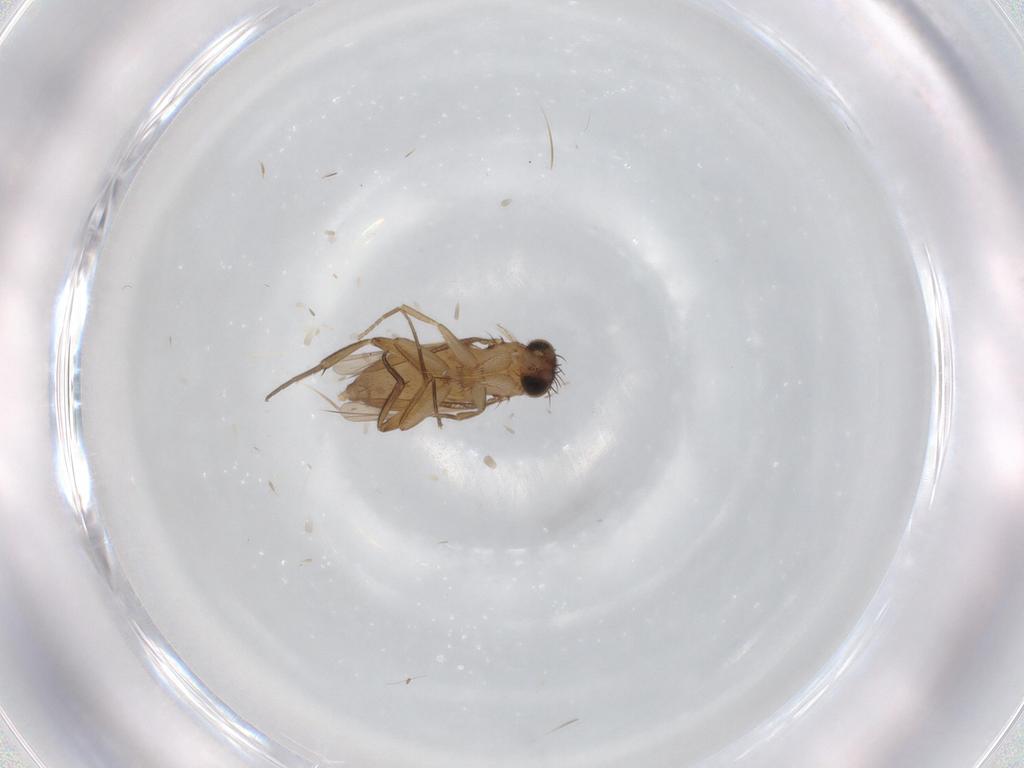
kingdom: Animalia
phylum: Arthropoda
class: Insecta
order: Diptera
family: Phoridae
